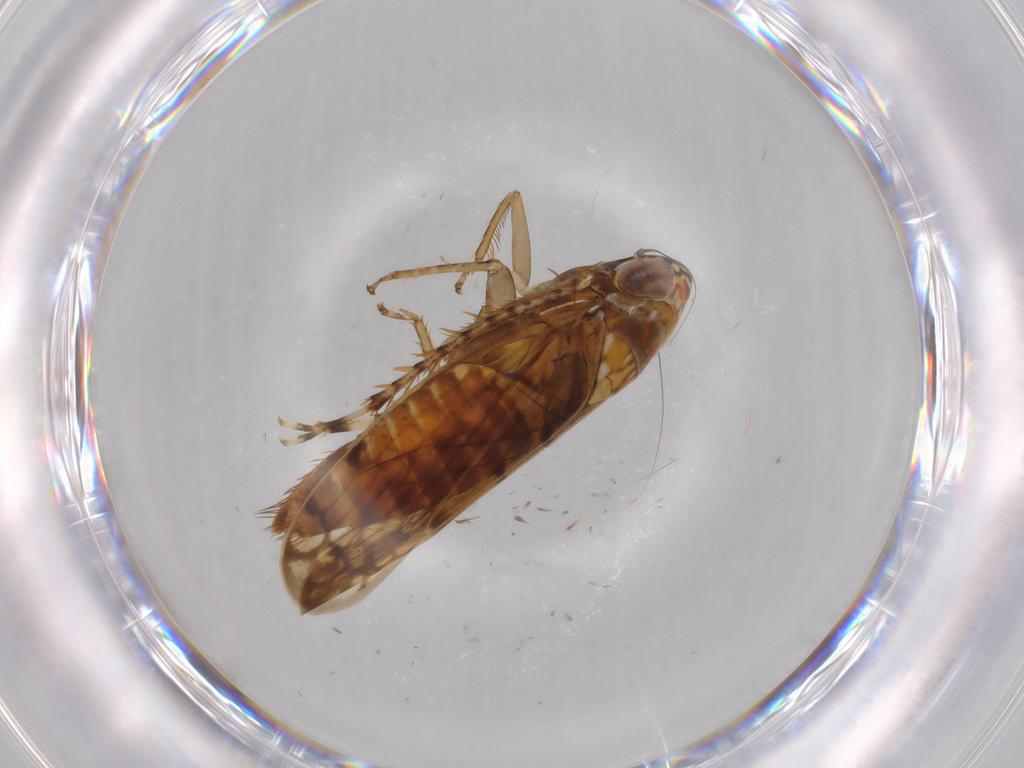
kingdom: Animalia
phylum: Arthropoda
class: Insecta
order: Hemiptera
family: Cicadellidae
